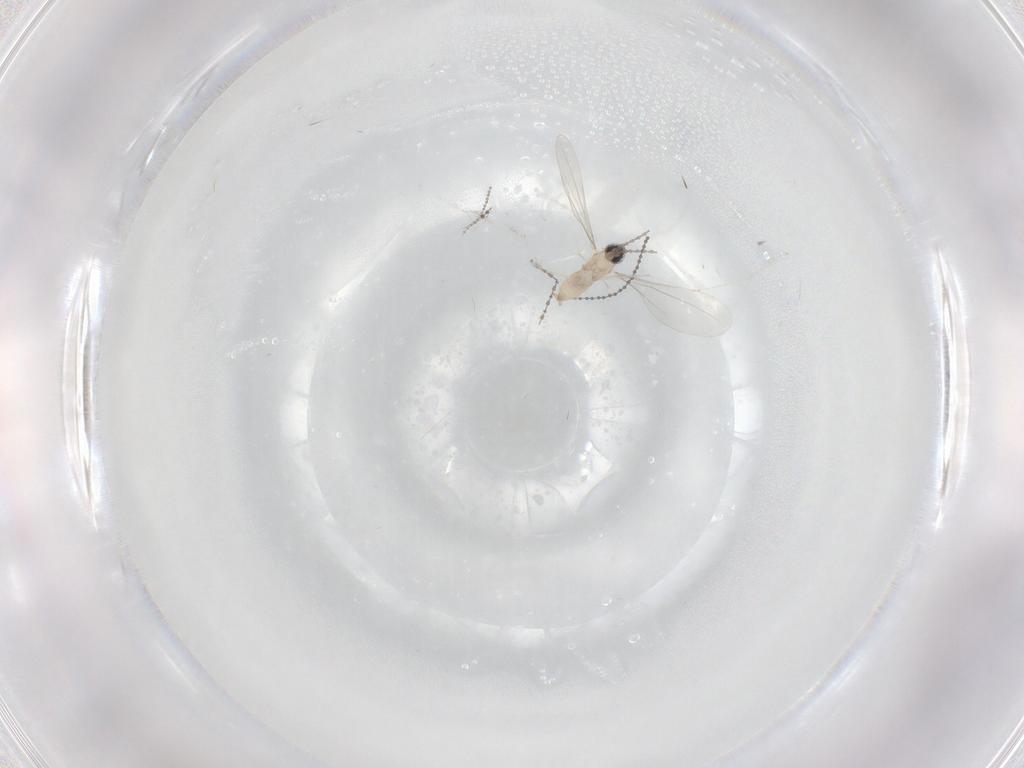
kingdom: Animalia
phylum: Arthropoda
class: Insecta
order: Diptera
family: Cecidomyiidae
